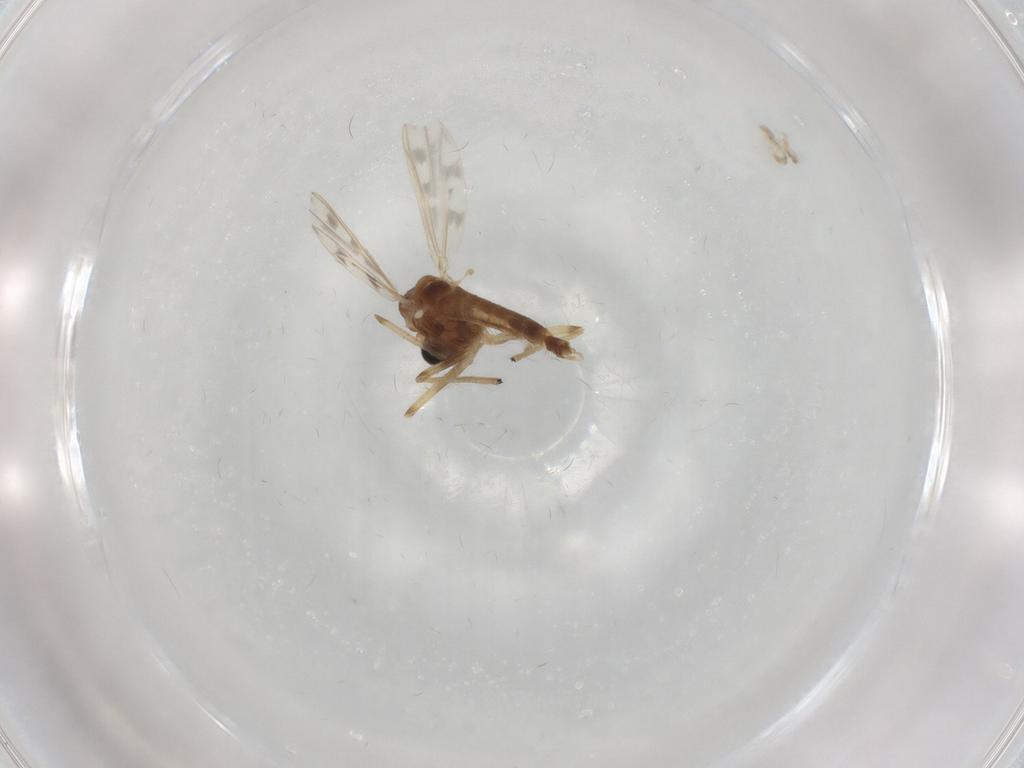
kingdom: Animalia
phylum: Arthropoda
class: Insecta
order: Diptera
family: Chironomidae
